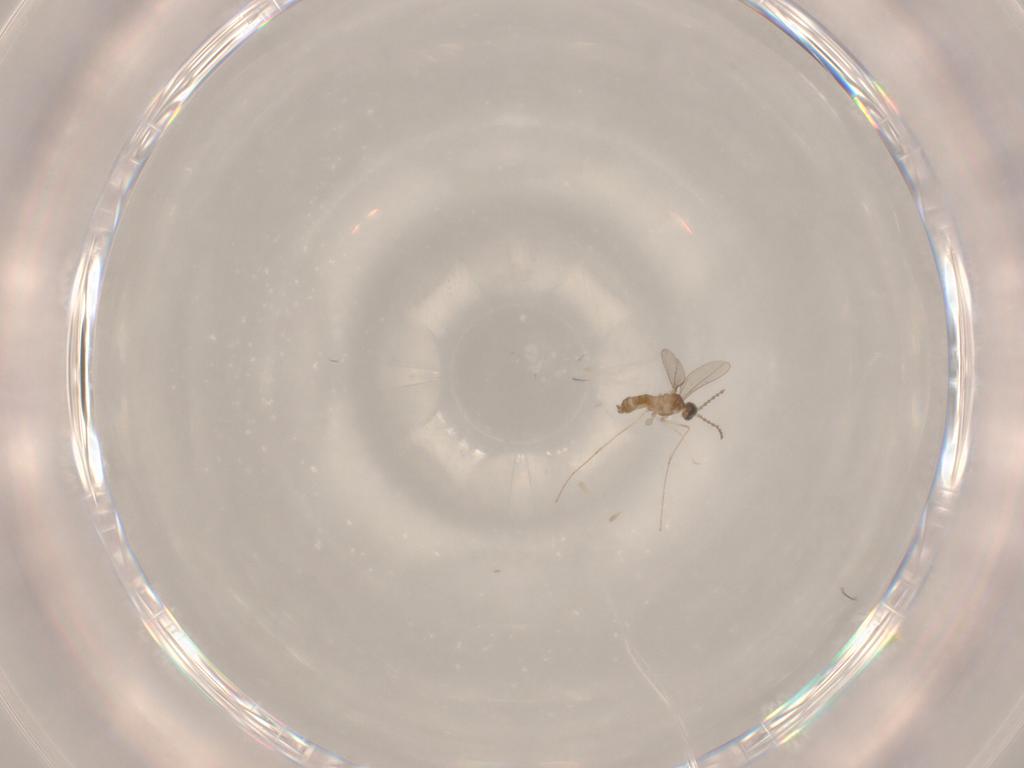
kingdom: Animalia
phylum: Arthropoda
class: Insecta
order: Diptera
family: Cecidomyiidae
